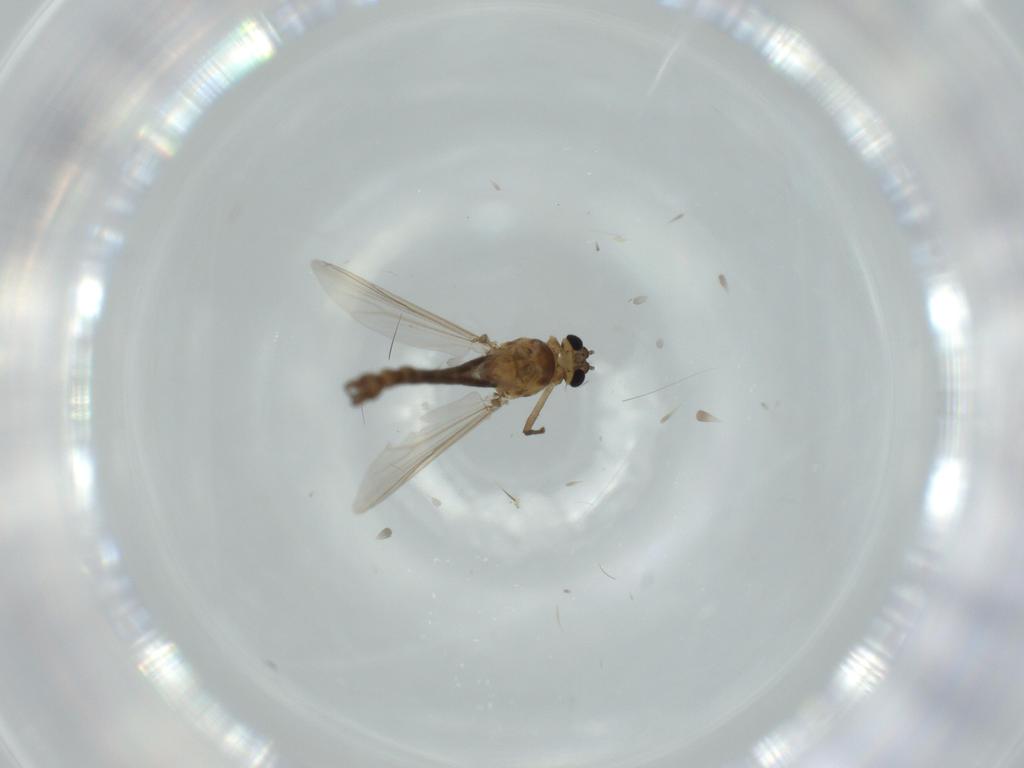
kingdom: Animalia
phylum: Arthropoda
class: Insecta
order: Diptera
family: Chironomidae
